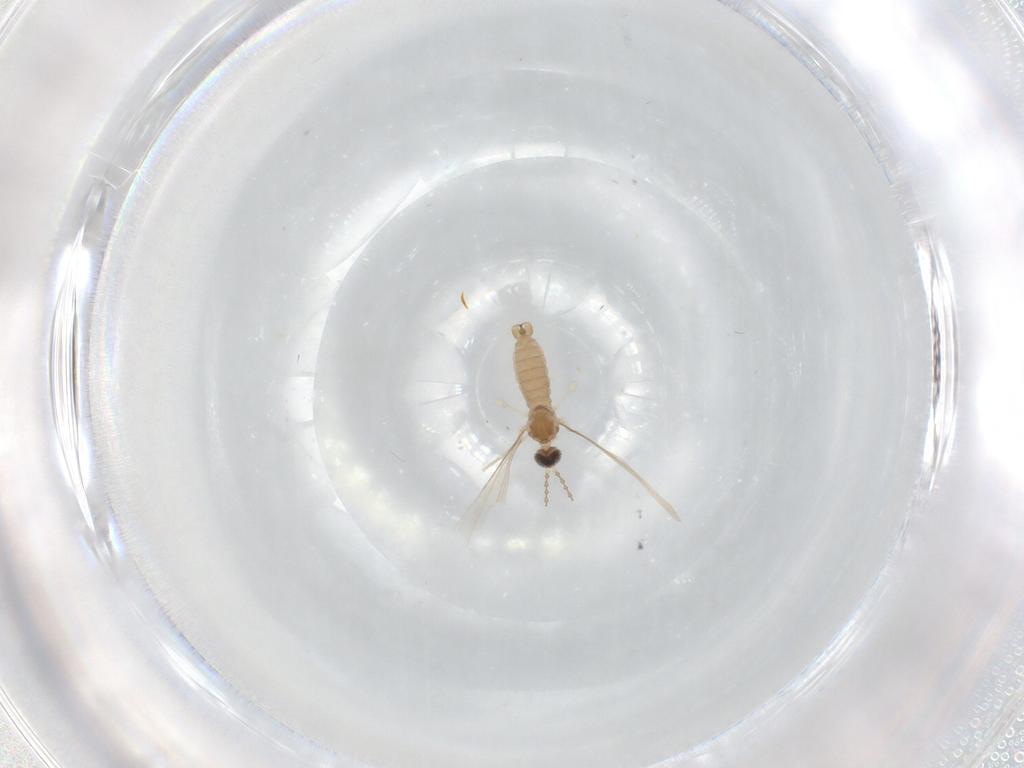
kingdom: Animalia
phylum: Arthropoda
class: Insecta
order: Diptera
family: Cecidomyiidae
